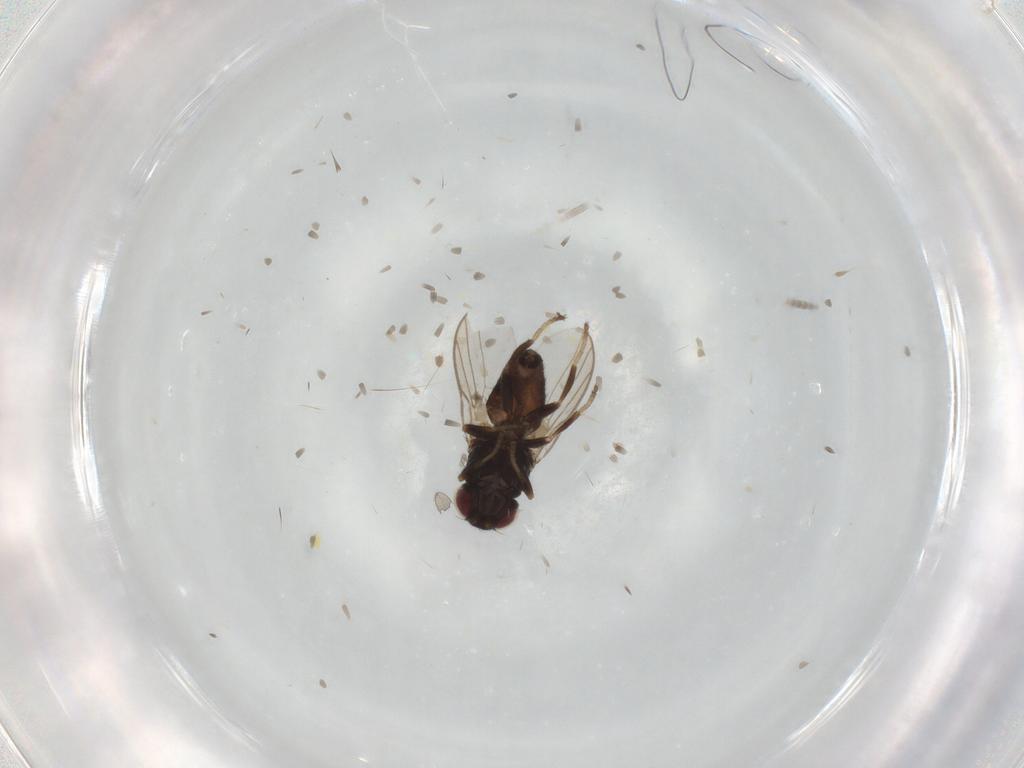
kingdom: Animalia
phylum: Arthropoda
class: Insecta
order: Diptera
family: Chloropidae
